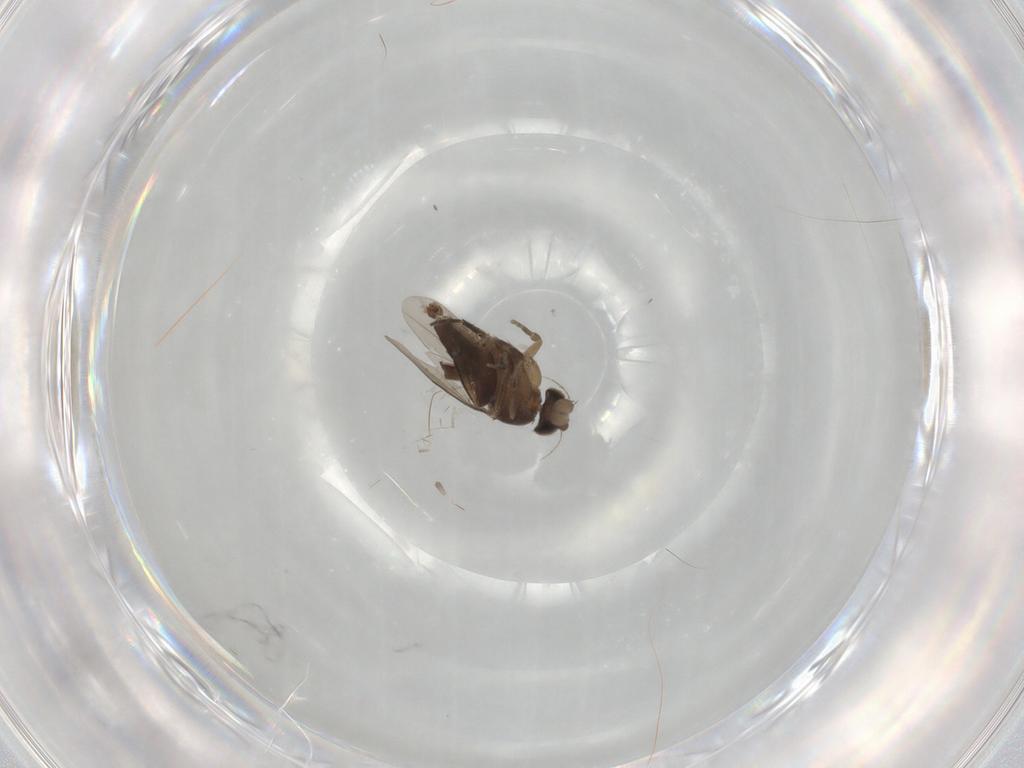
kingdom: Animalia
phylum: Arthropoda
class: Insecta
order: Diptera
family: Phoridae
